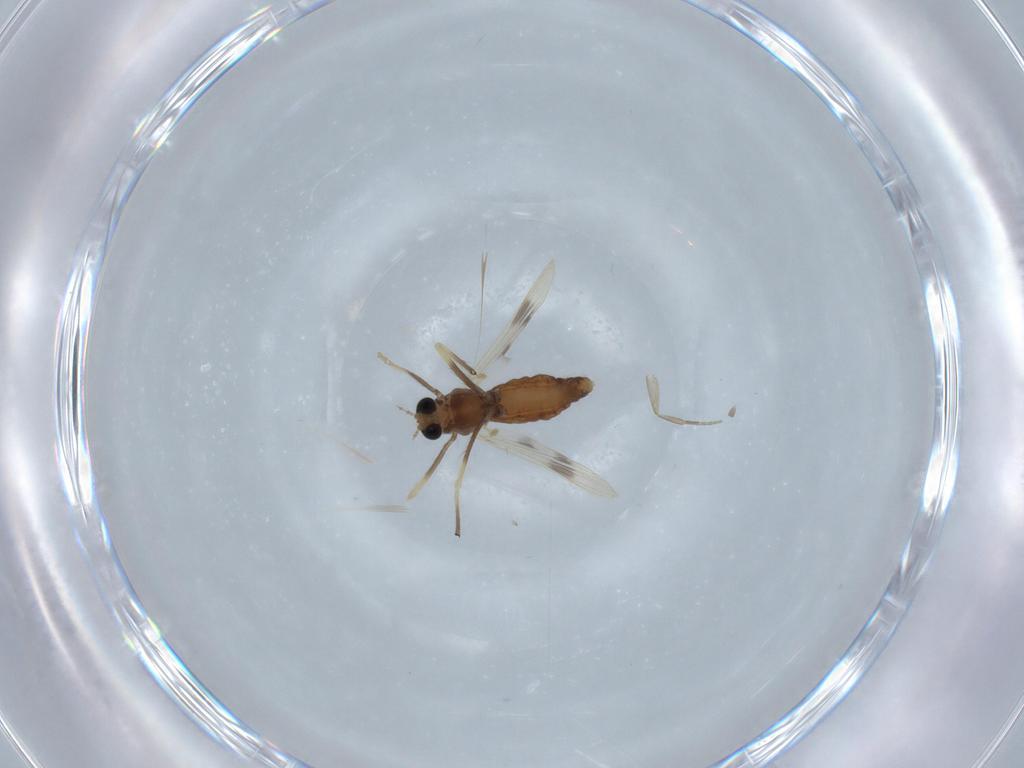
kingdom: Animalia
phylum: Arthropoda
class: Insecta
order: Diptera
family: Chironomidae
